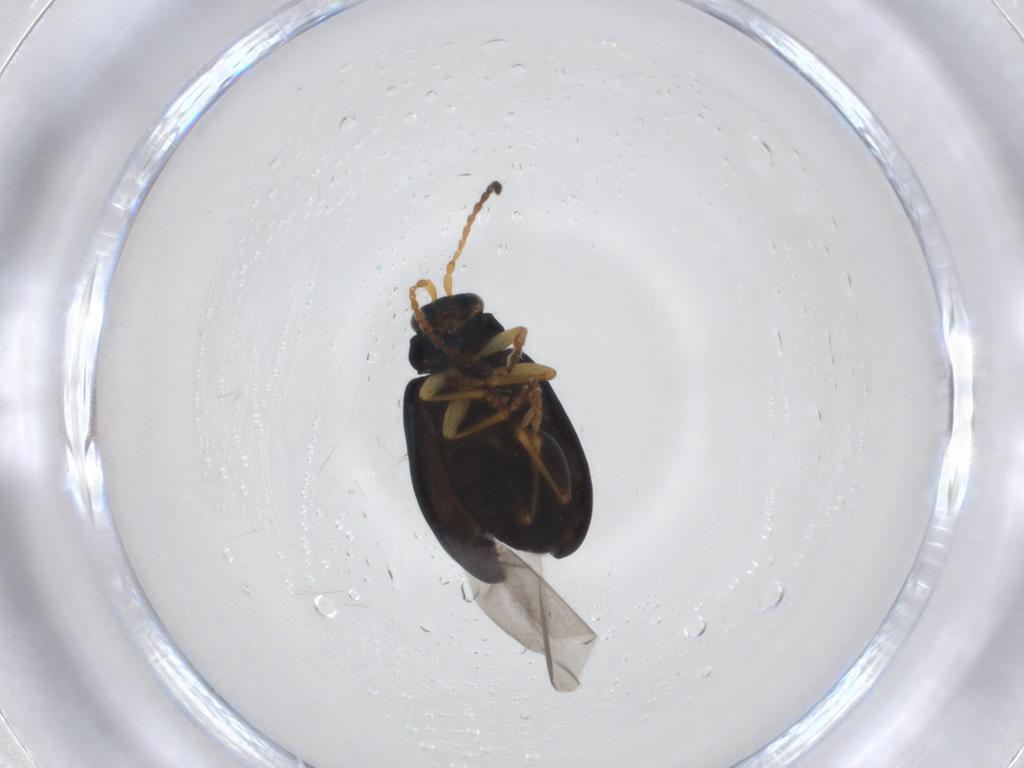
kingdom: Animalia
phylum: Arthropoda
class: Insecta
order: Coleoptera
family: Chrysomelidae
